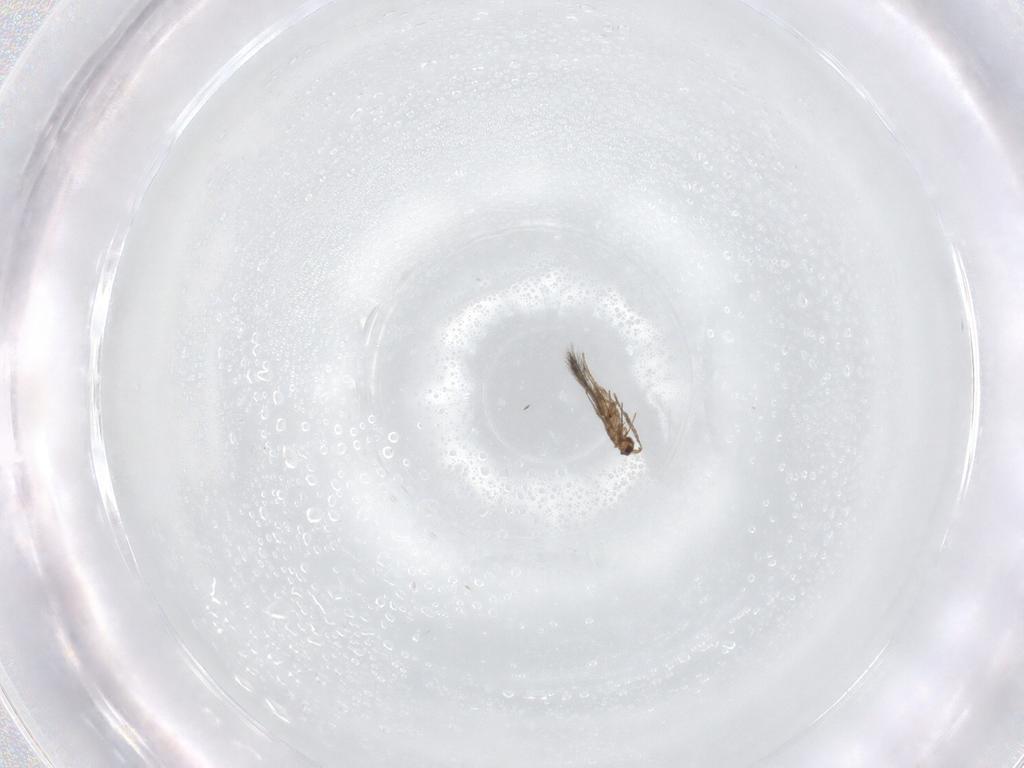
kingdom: Animalia
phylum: Arthropoda
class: Insecta
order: Hymenoptera
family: Mymaridae
